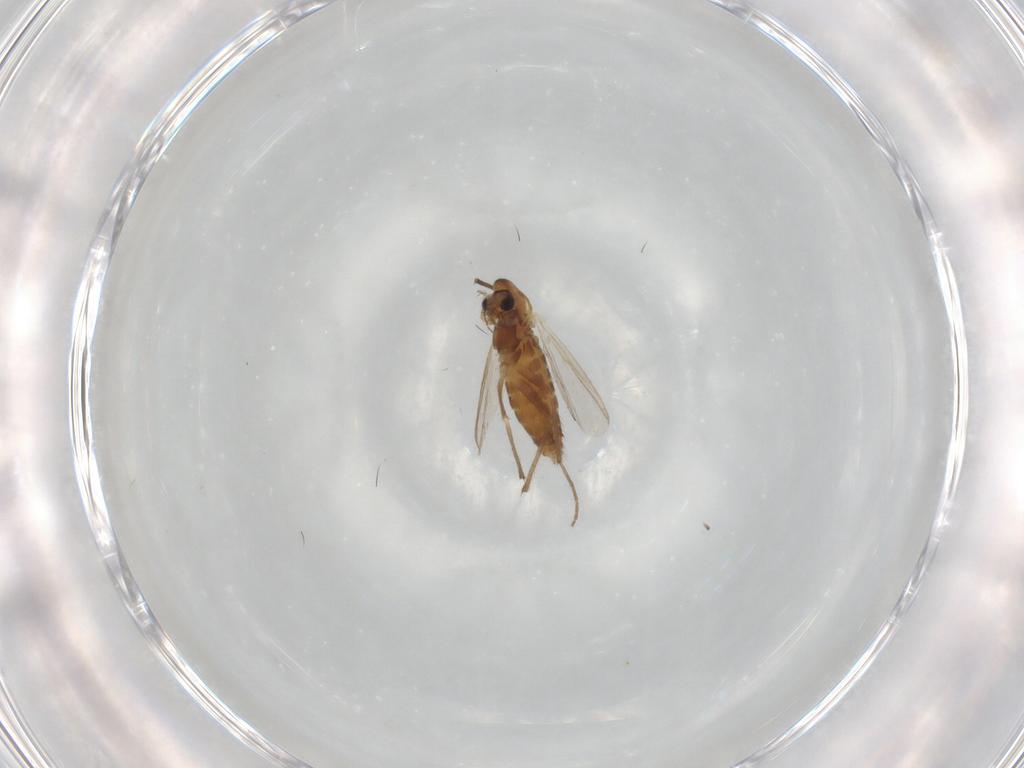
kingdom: Animalia
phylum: Arthropoda
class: Insecta
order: Diptera
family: Chironomidae
